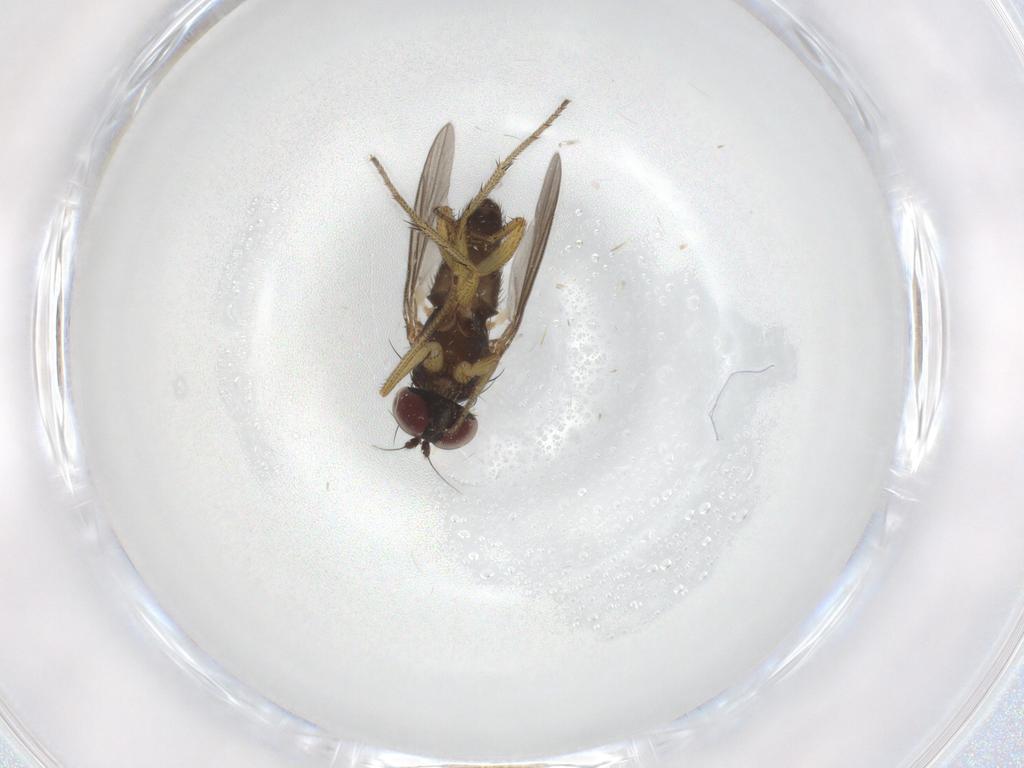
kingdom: Animalia
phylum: Arthropoda
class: Insecta
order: Diptera
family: Dolichopodidae
